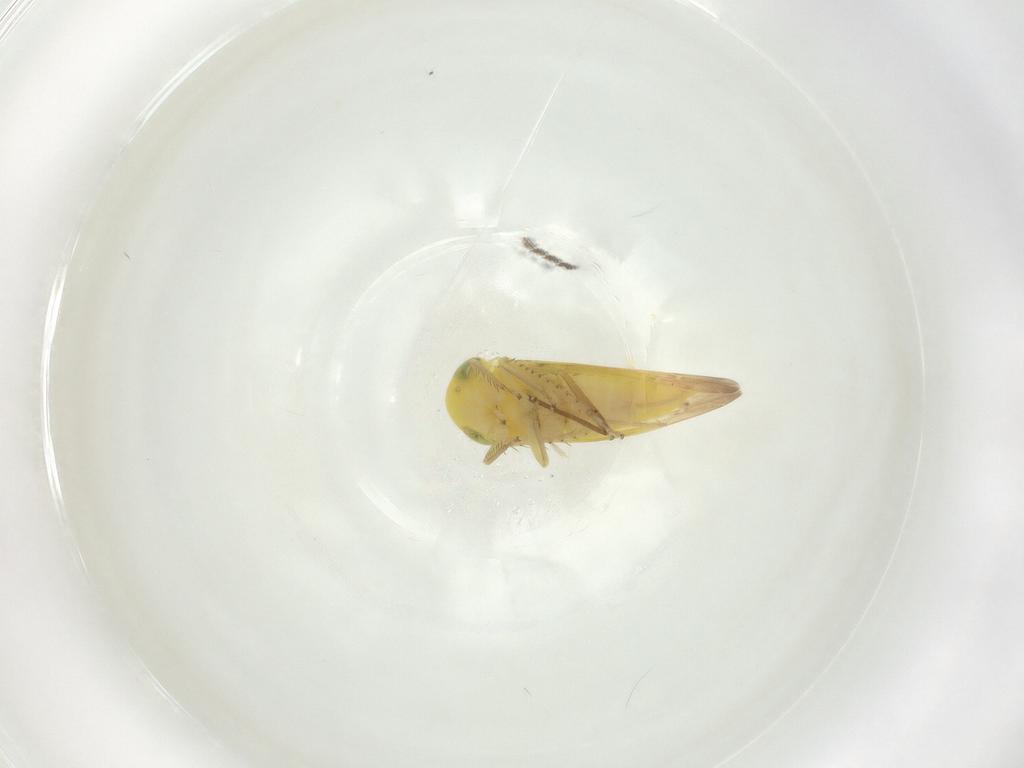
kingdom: Animalia
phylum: Arthropoda
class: Insecta
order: Hemiptera
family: Cicadellidae
